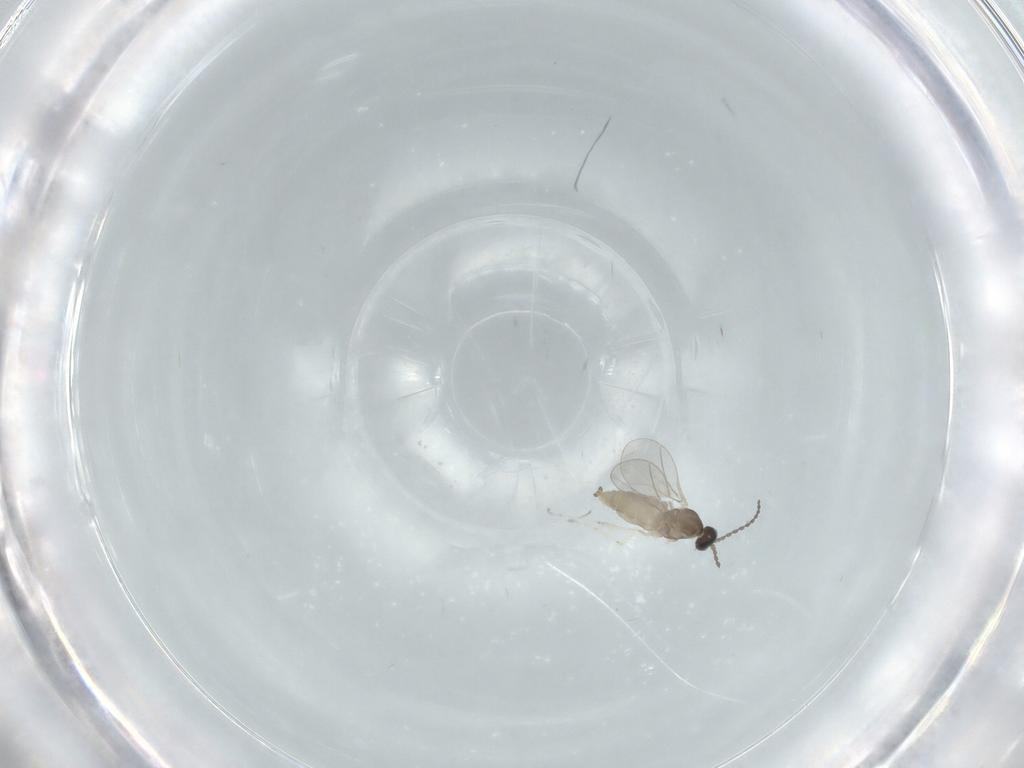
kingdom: Animalia
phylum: Arthropoda
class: Insecta
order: Diptera
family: Cecidomyiidae
